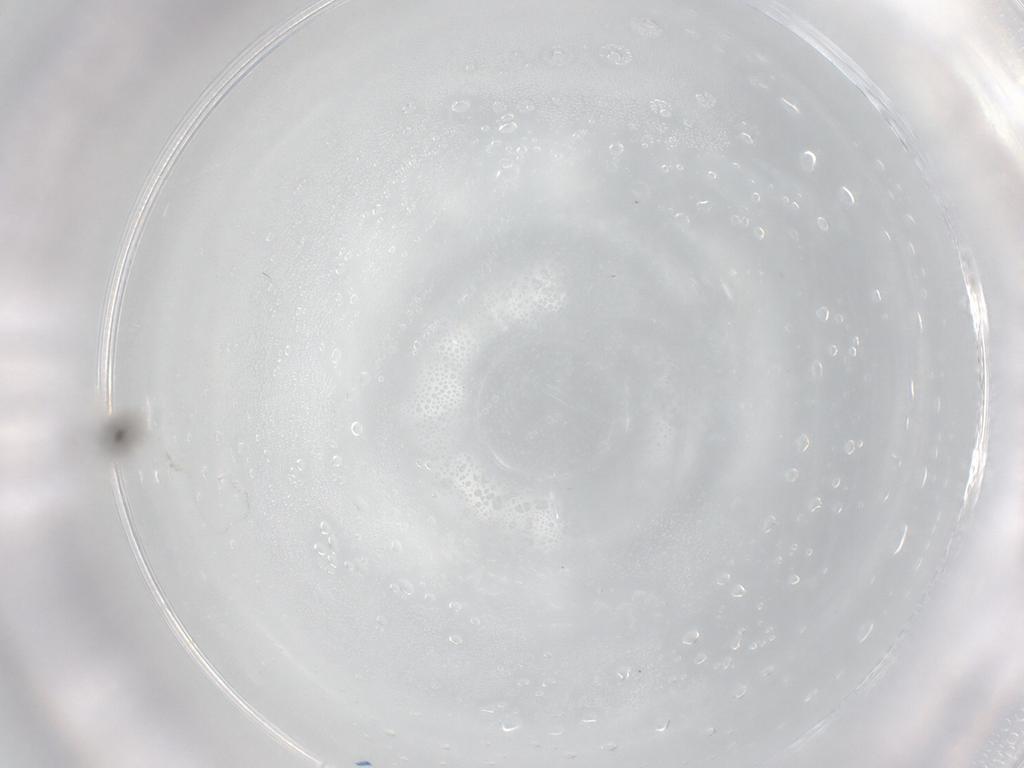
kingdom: Animalia
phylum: Arthropoda
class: Insecta
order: Diptera
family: Cecidomyiidae
